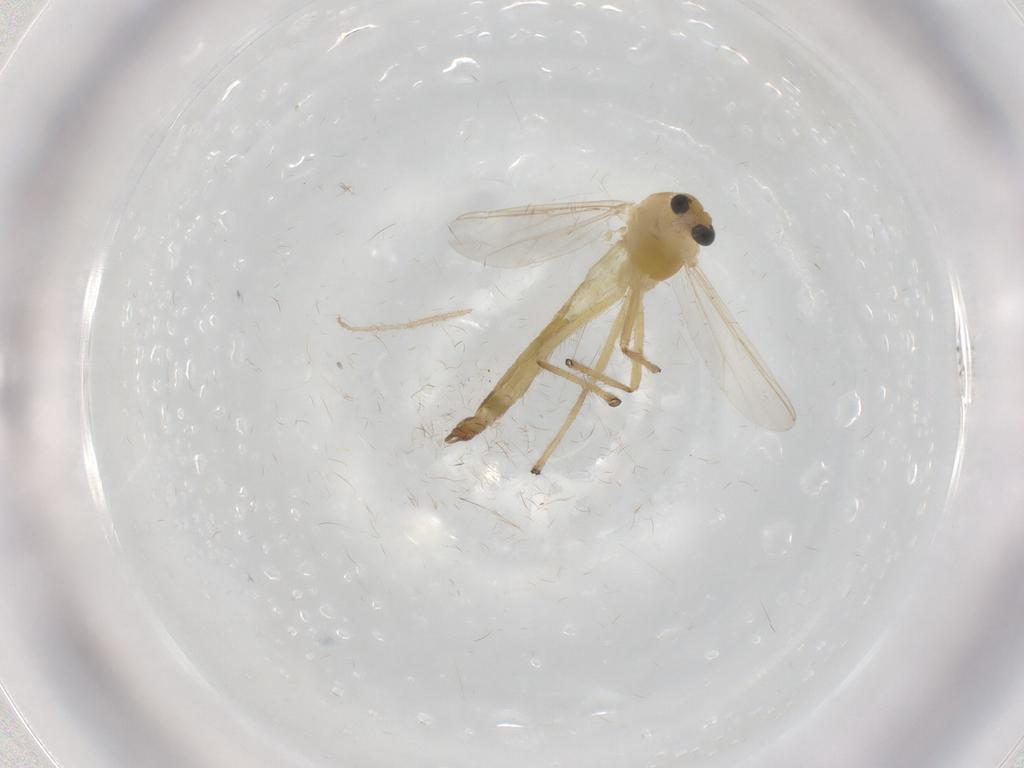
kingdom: Animalia
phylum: Arthropoda
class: Insecta
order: Diptera
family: Chironomidae
